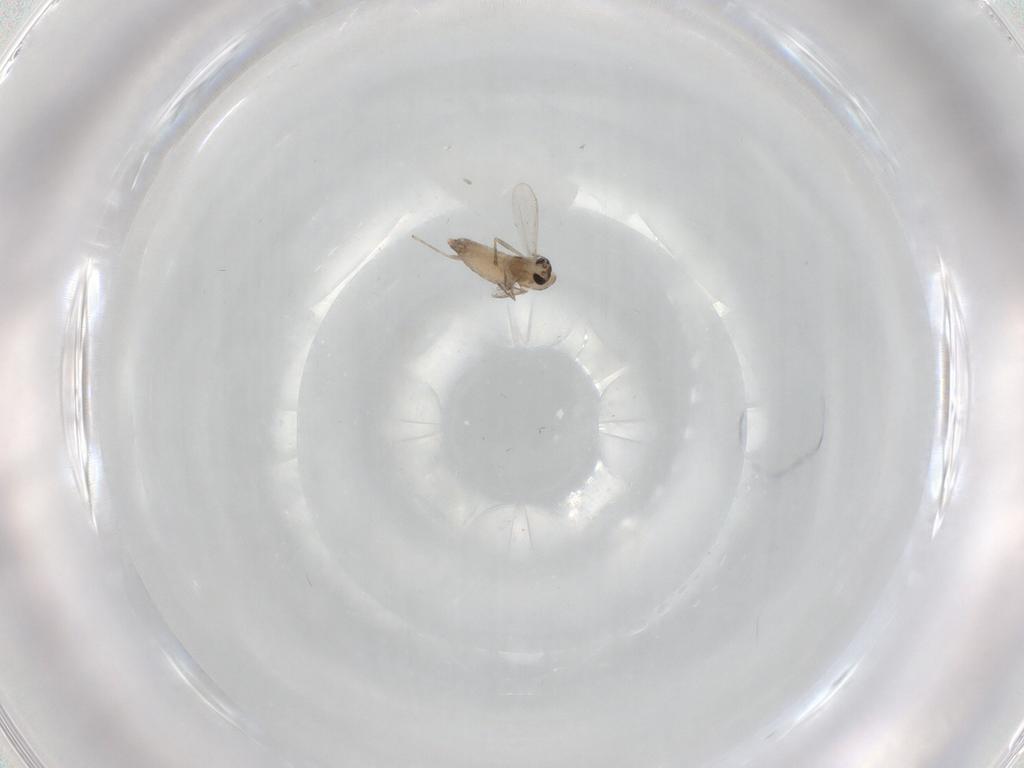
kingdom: Animalia
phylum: Arthropoda
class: Insecta
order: Diptera
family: Chironomidae
